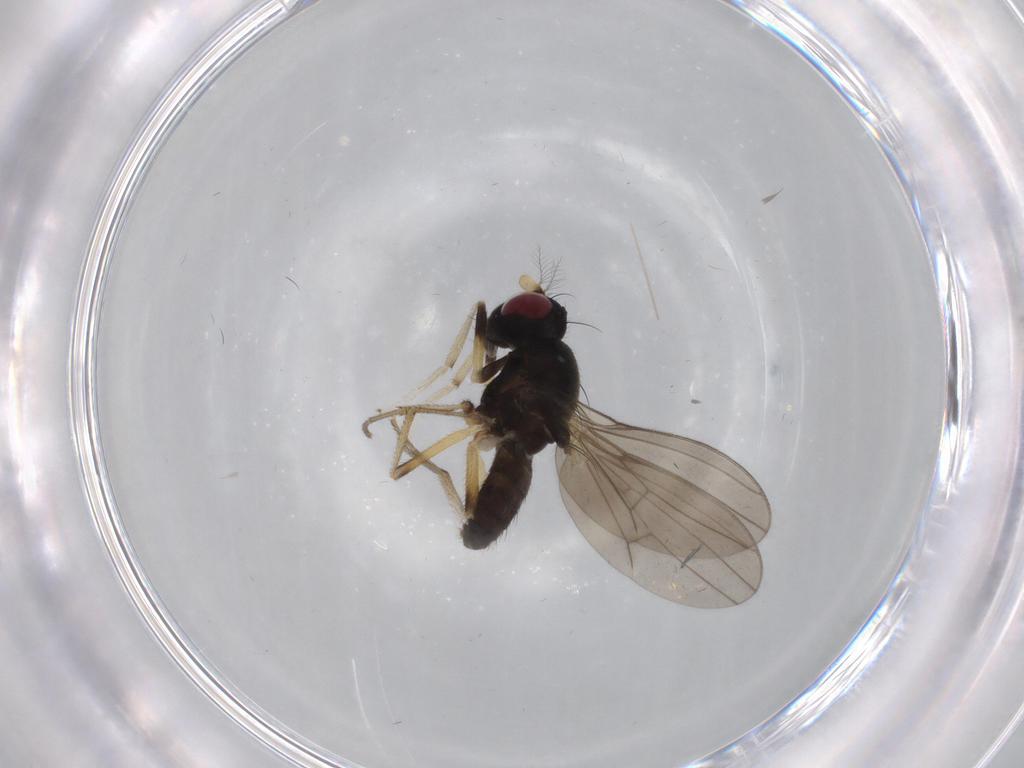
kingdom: Animalia
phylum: Arthropoda
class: Insecta
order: Diptera
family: Lauxaniidae
